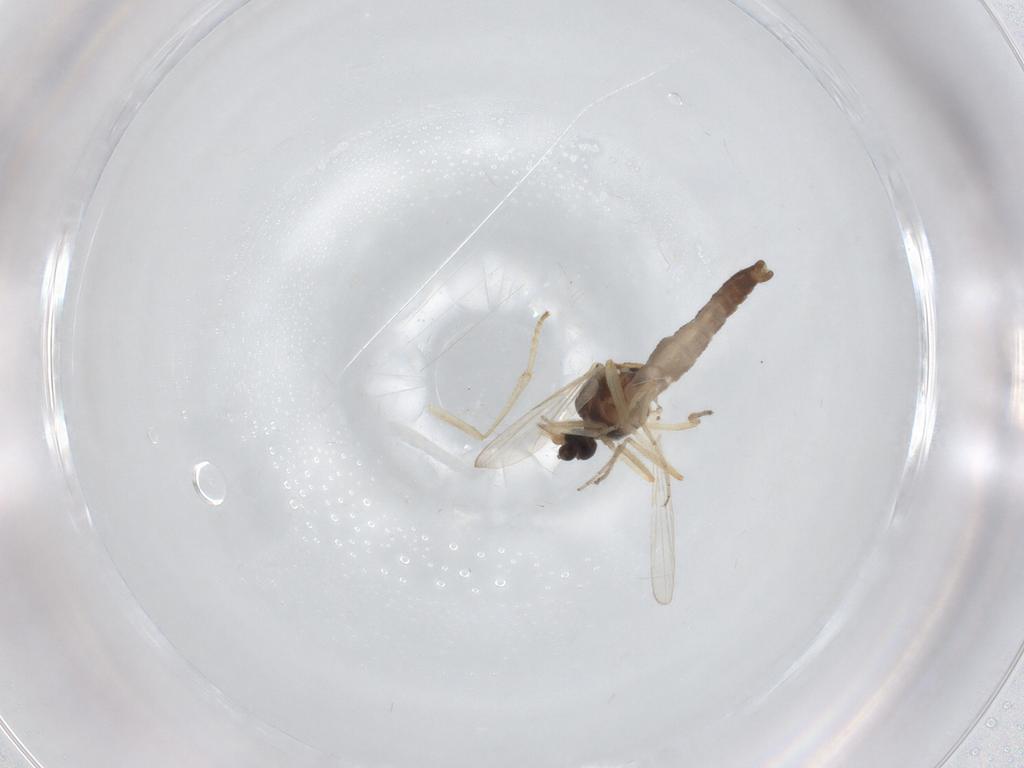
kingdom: Animalia
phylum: Arthropoda
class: Insecta
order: Diptera
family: Ceratopogonidae
